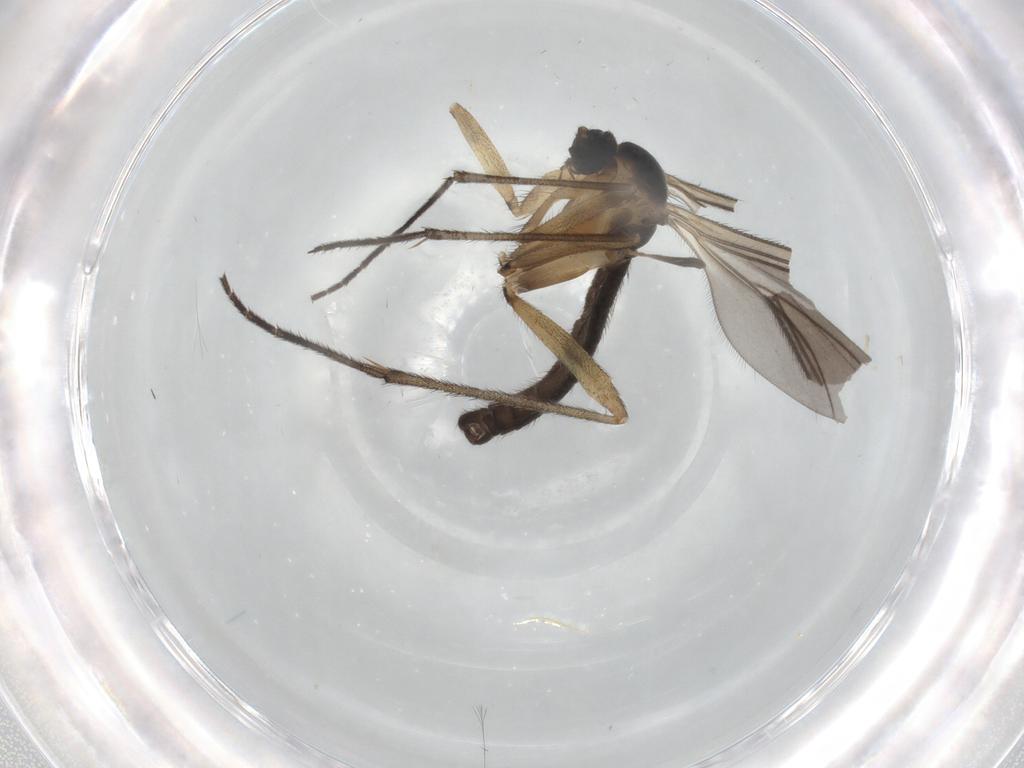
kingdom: Animalia
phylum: Arthropoda
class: Insecta
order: Diptera
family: Sciaridae
